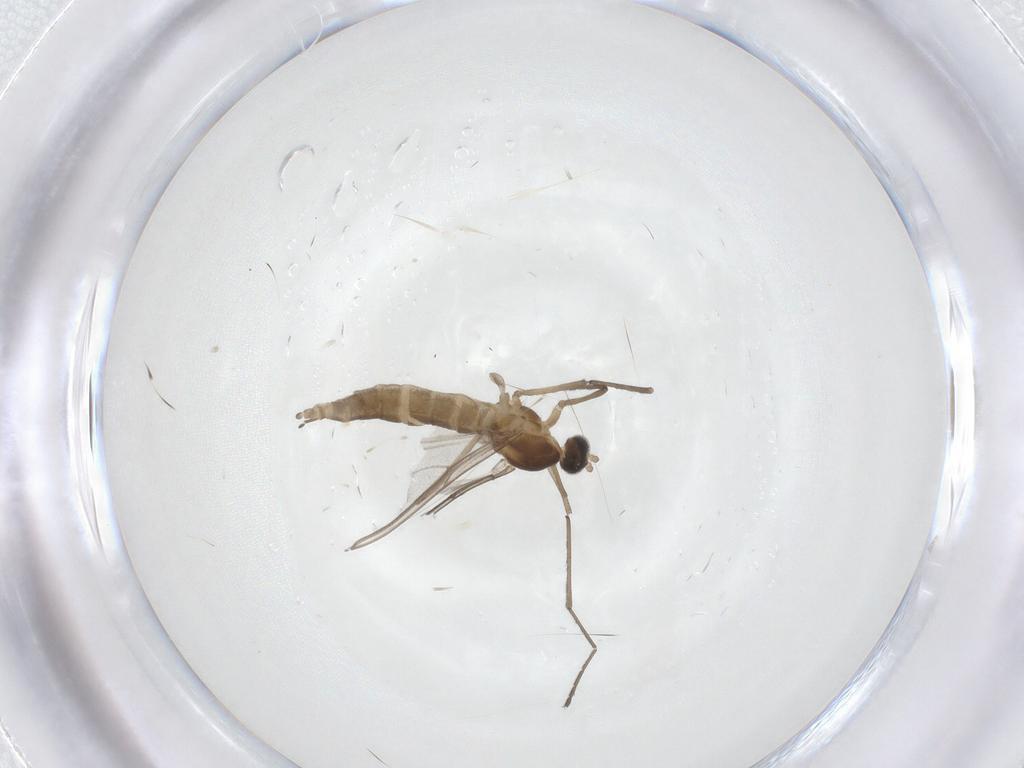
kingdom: Animalia
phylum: Arthropoda
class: Insecta
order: Diptera
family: Cecidomyiidae
